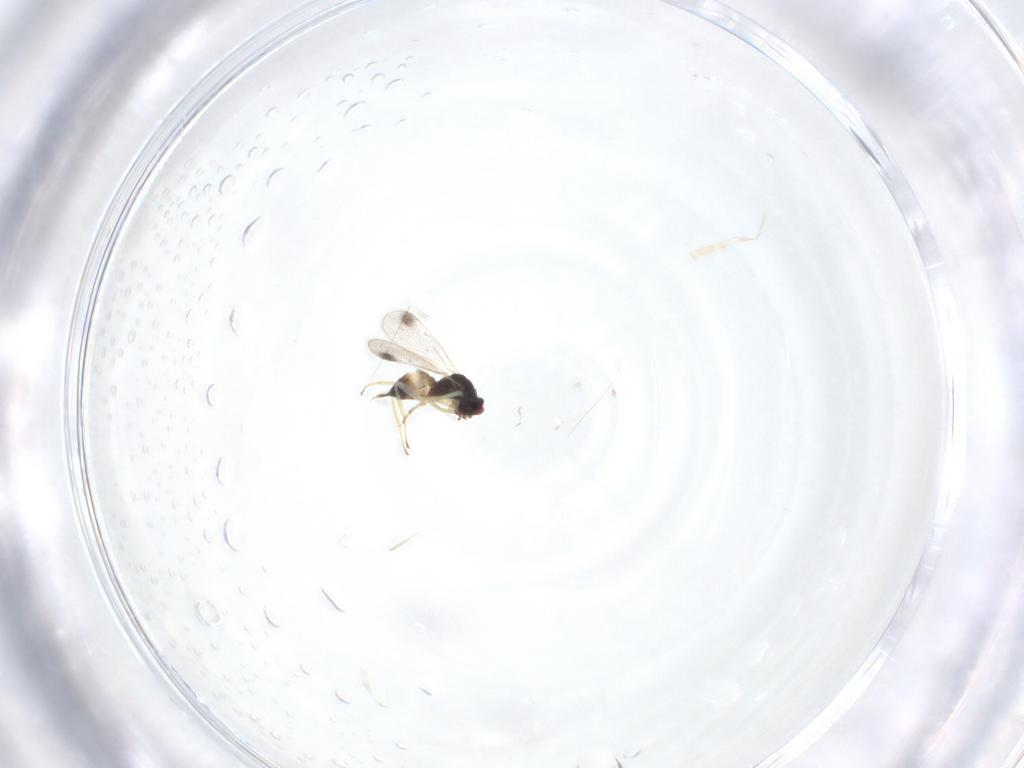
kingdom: Animalia
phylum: Arthropoda
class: Insecta
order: Hymenoptera
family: Eulophidae
